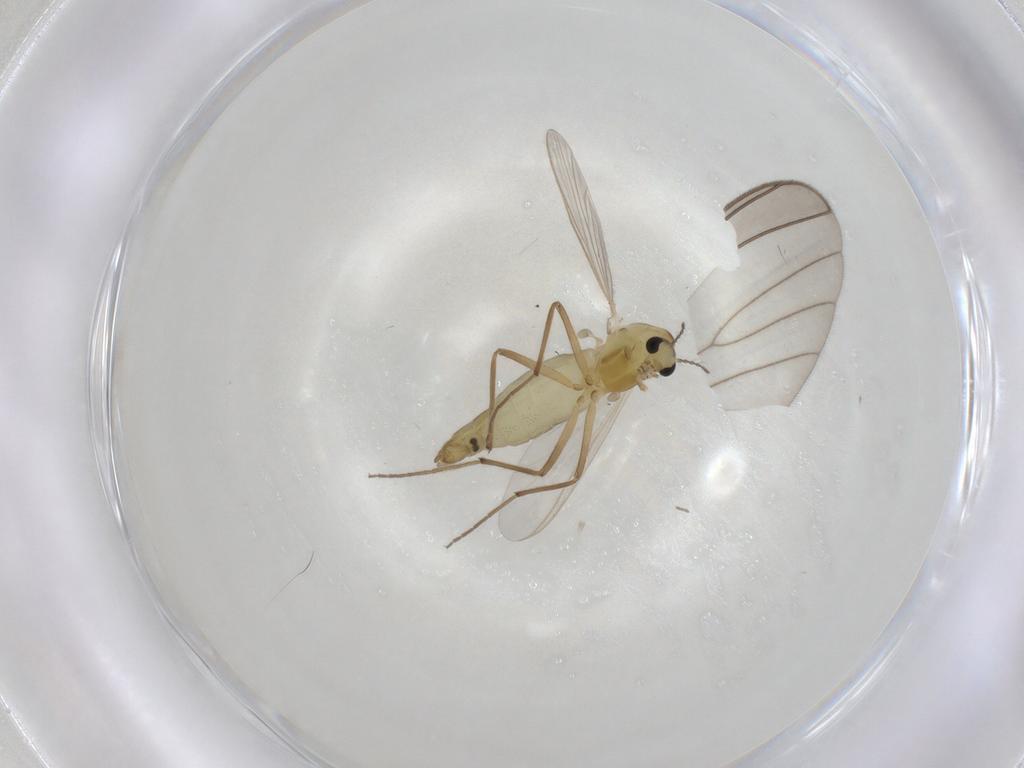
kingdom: Animalia
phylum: Arthropoda
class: Insecta
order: Diptera
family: Chironomidae
